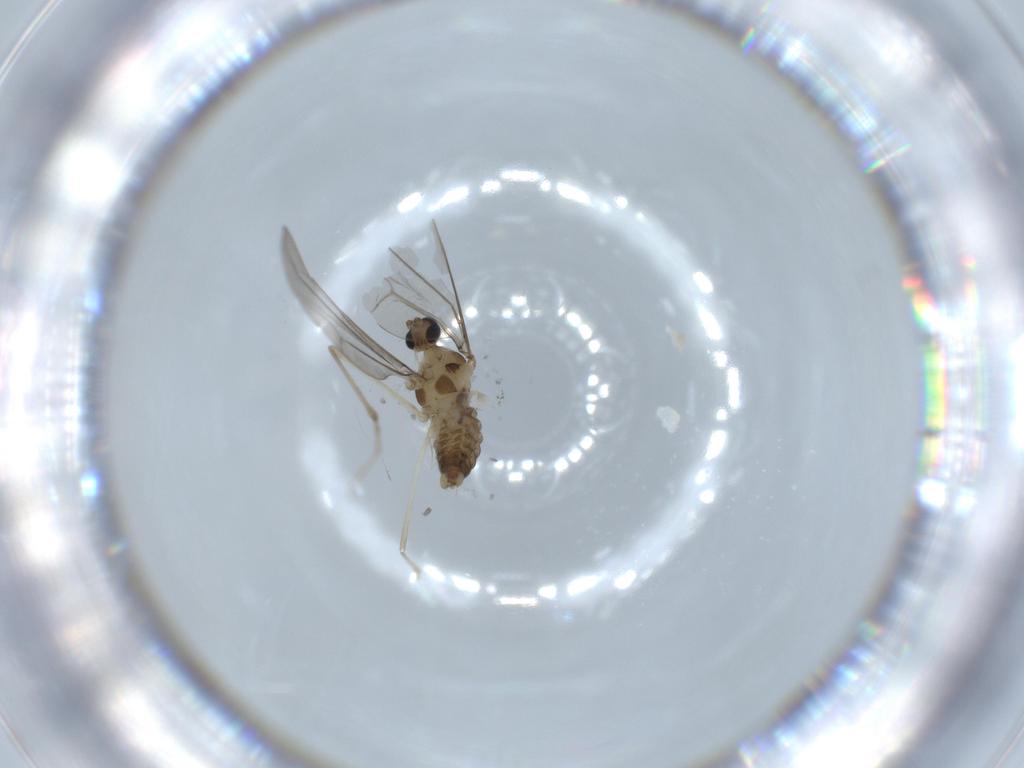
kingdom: Animalia
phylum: Arthropoda
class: Insecta
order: Diptera
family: Cecidomyiidae
